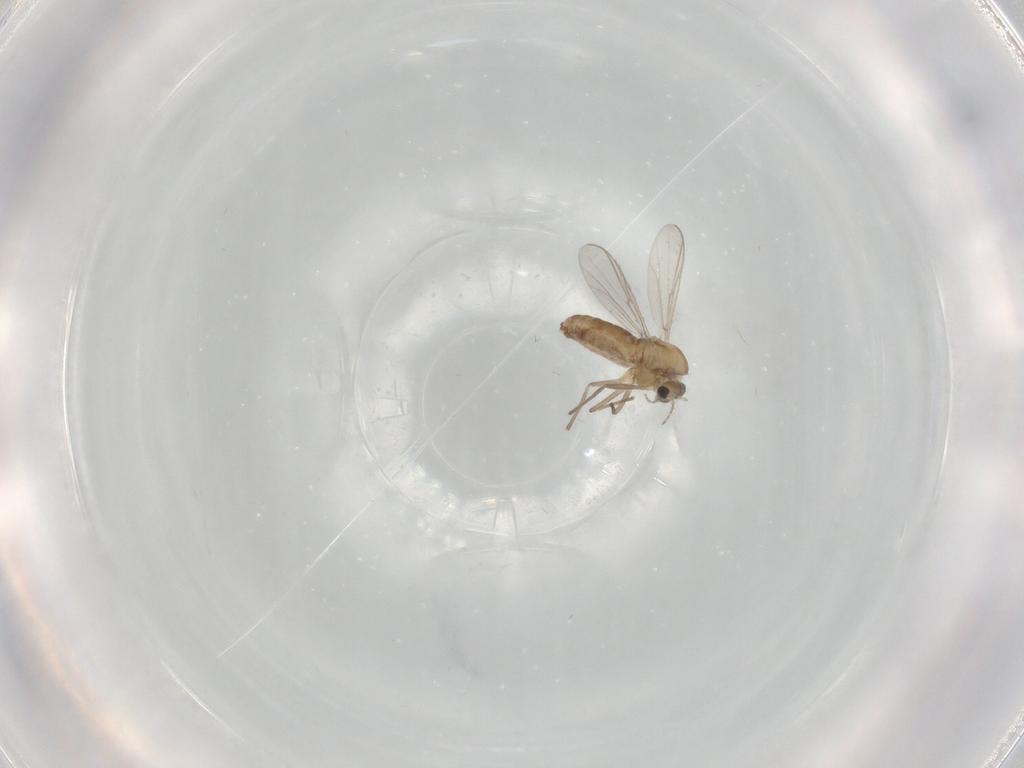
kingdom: Animalia
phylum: Arthropoda
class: Insecta
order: Diptera
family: Chironomidae
